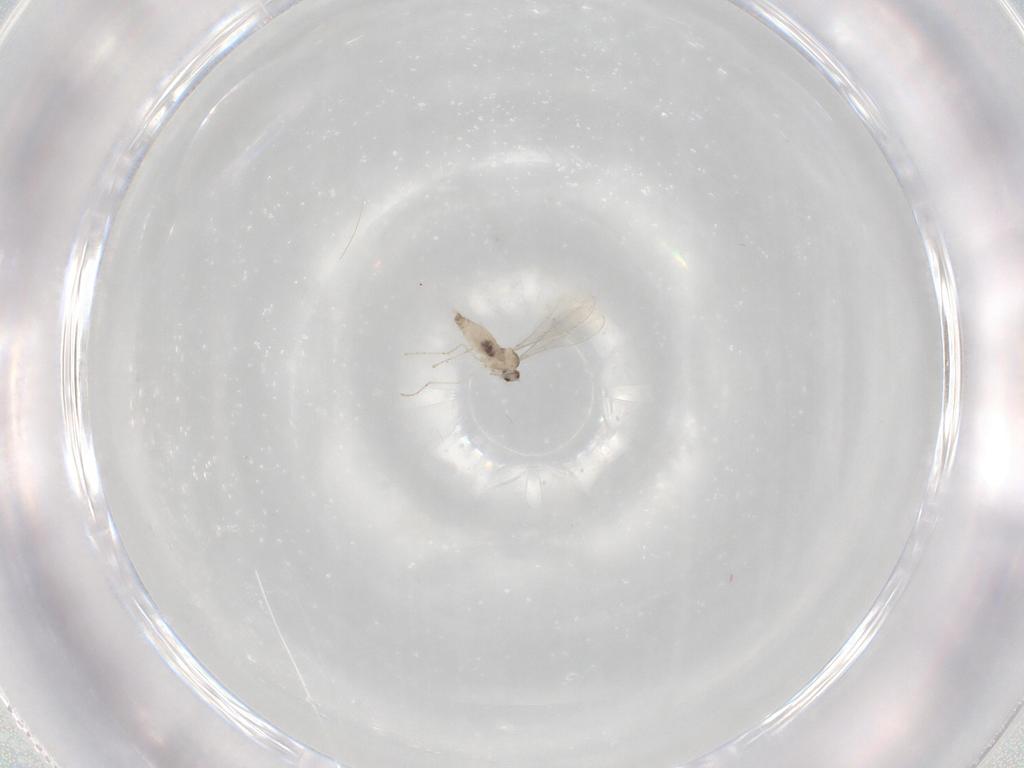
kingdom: Animalia
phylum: Arthropoda
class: Insecta
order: Diptera
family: Cecidomyiidae
